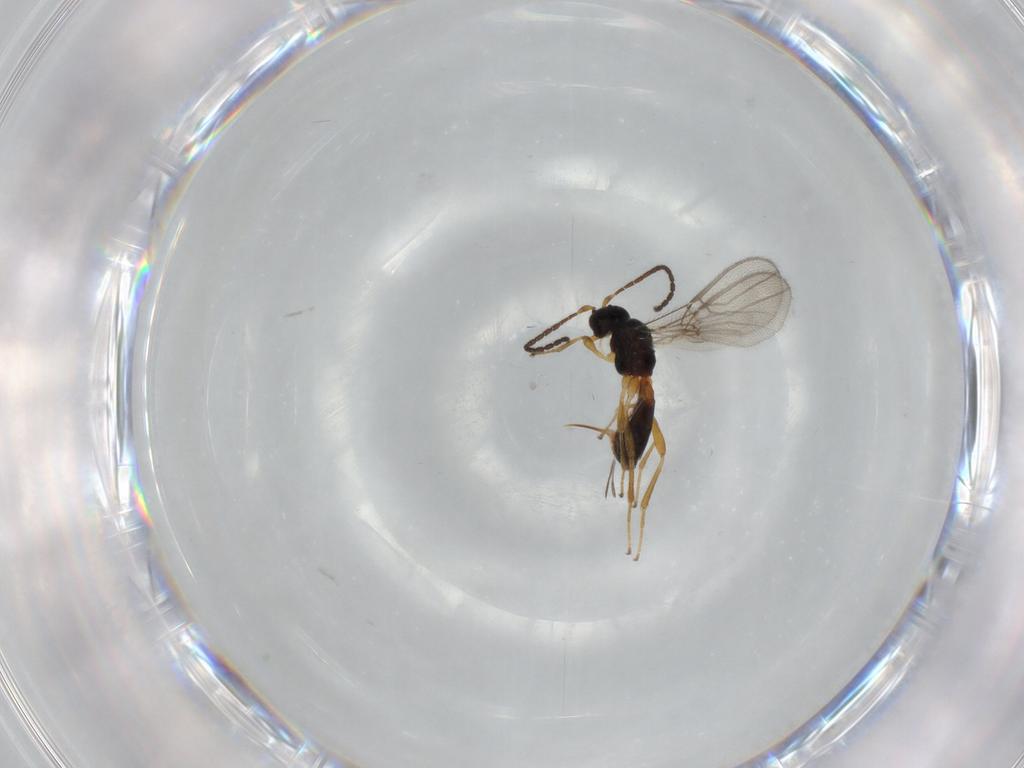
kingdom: Animalia
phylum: Arthropoda
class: Insecta
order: Hymenoptera
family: Braconidae
